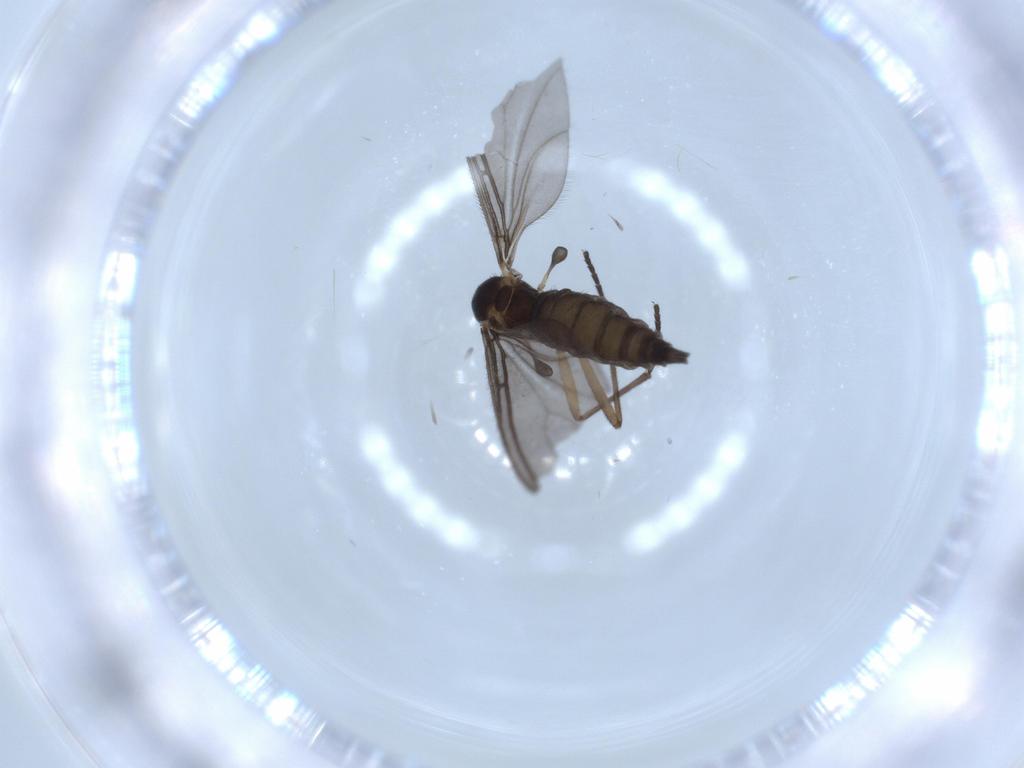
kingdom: Animalia
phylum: Arthropoda
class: Insecta
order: Diptera
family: Sciaridae
